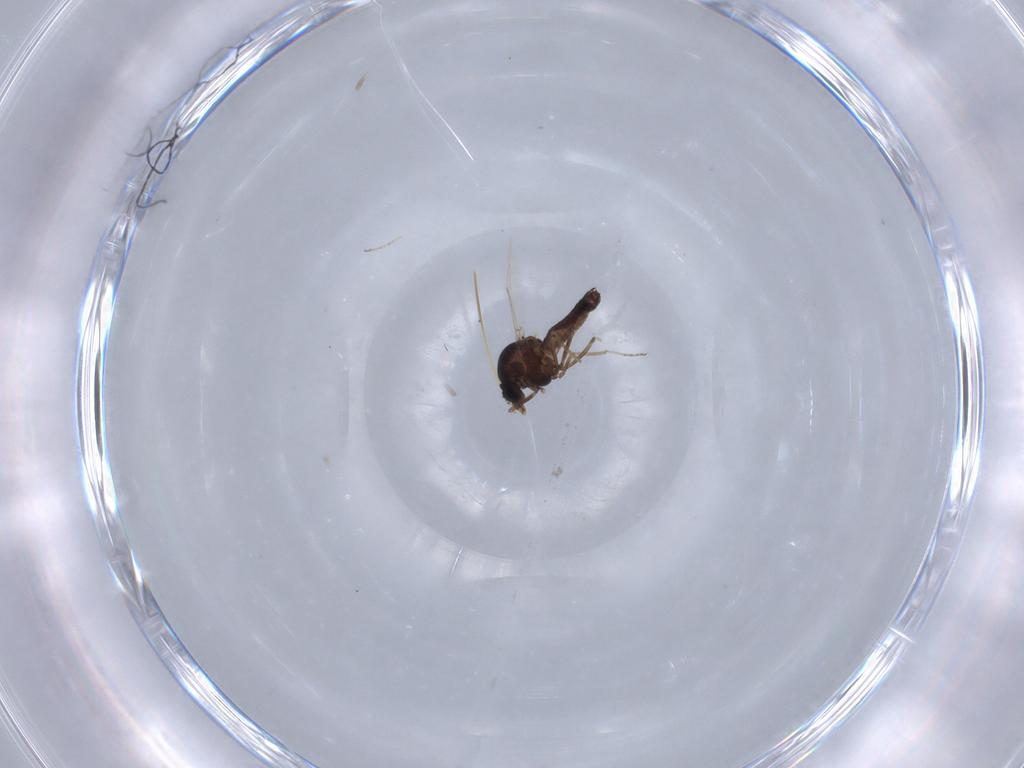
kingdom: Animalia
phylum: Arthropoda
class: Insecta
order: Diptera
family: Ceratopogonidae
